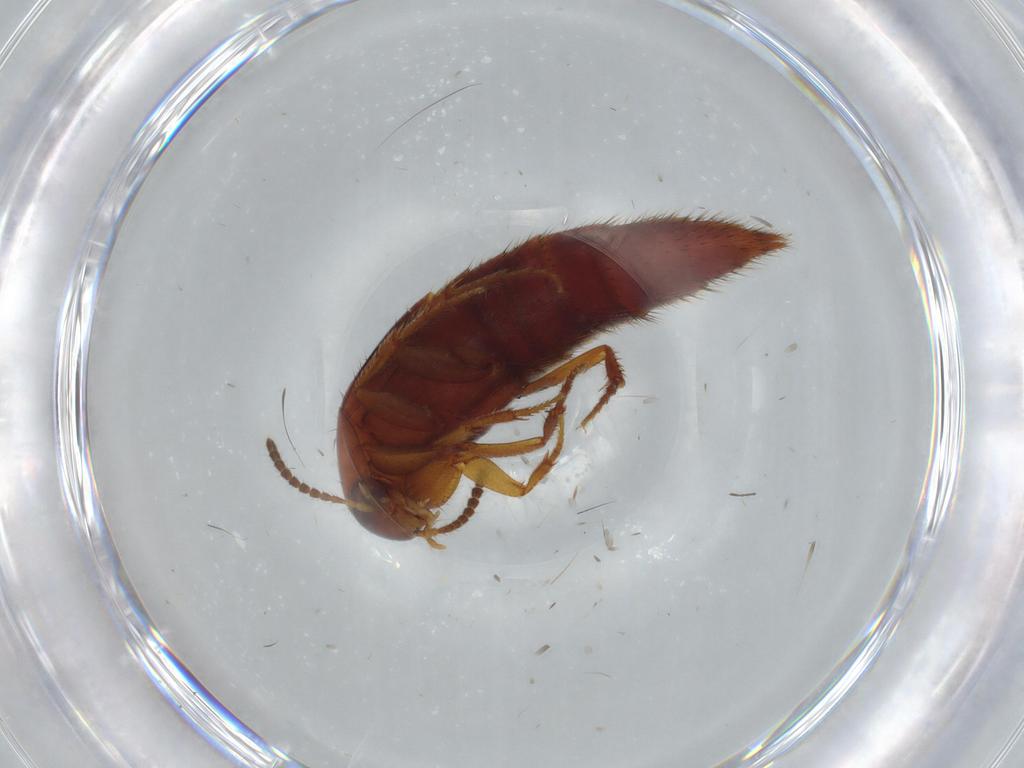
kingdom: Animalia
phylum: Arthropoda
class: Insecta
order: Coleoptera
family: Staphylinidae
